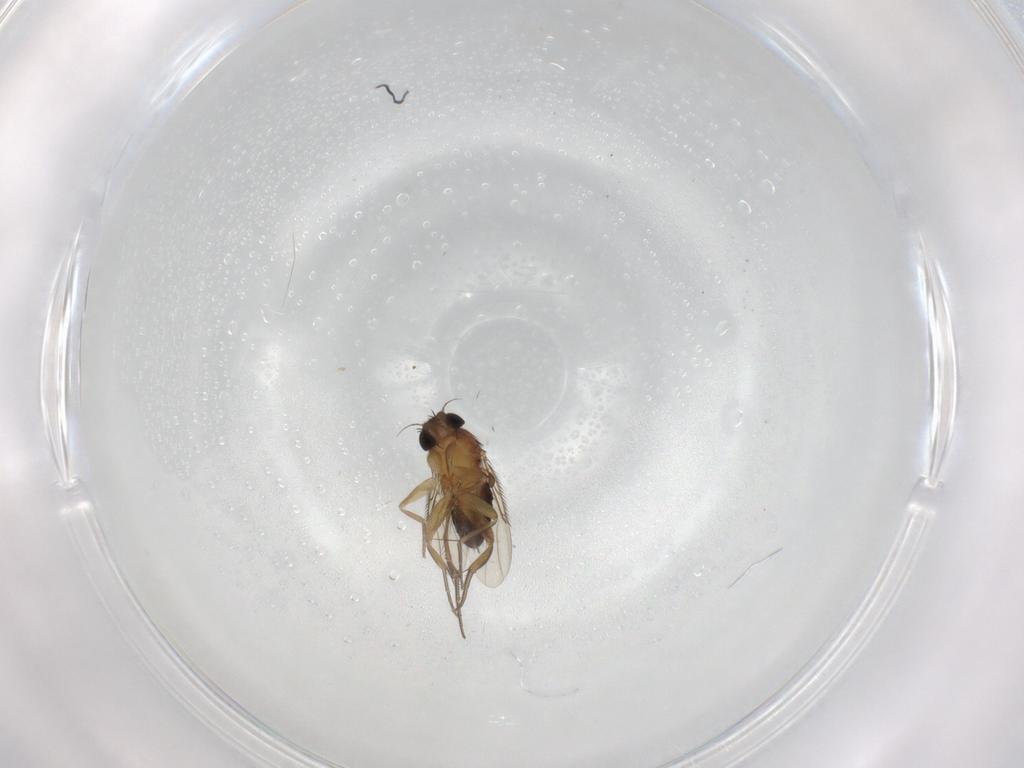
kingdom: Animalia
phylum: Arthropoda
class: Insecta
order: Diptera
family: Phoridae
